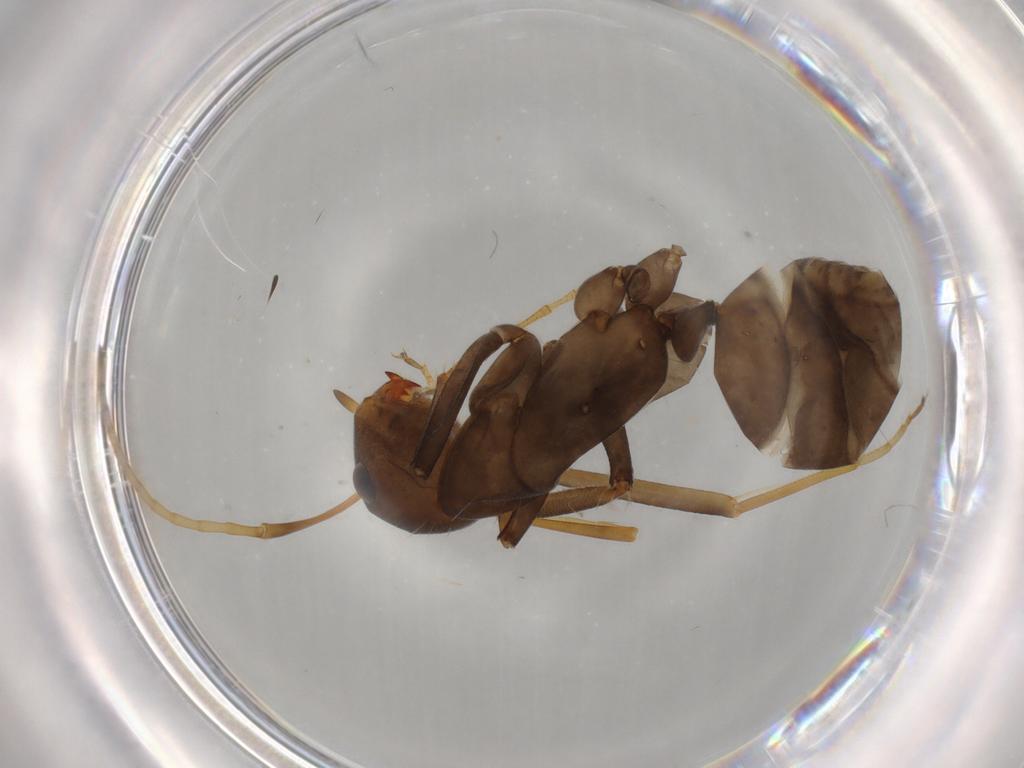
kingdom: Animalia
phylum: Arthropoda
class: Insecta
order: Hymenoptera
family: Formicidae
